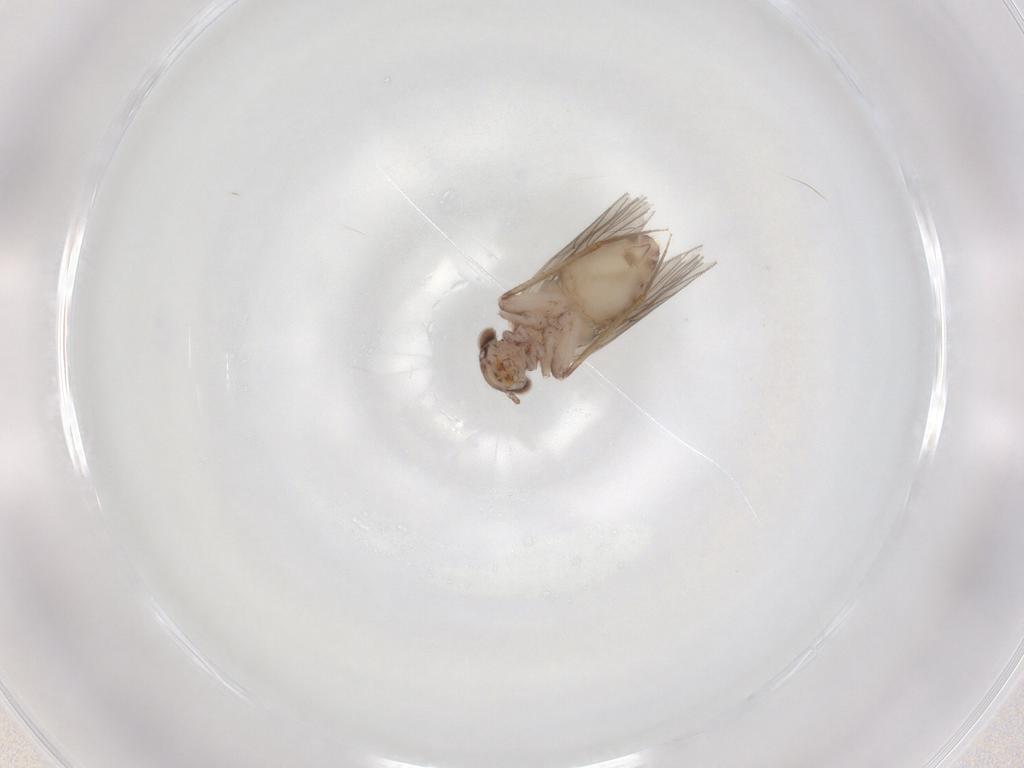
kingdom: Animalia
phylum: Arthropoda
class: Insecta
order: Psocodea
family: Lepidopsocidae
